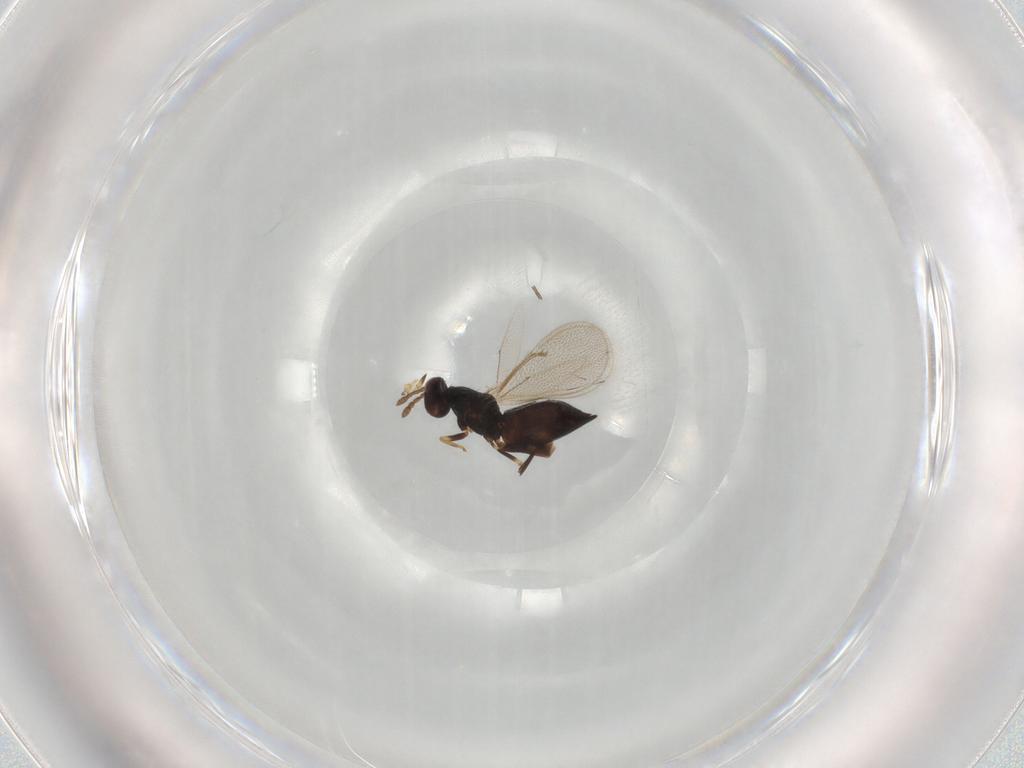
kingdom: Animalia
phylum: Arthropoda
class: Insecta
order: Hymenoptera
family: Eulophidae
